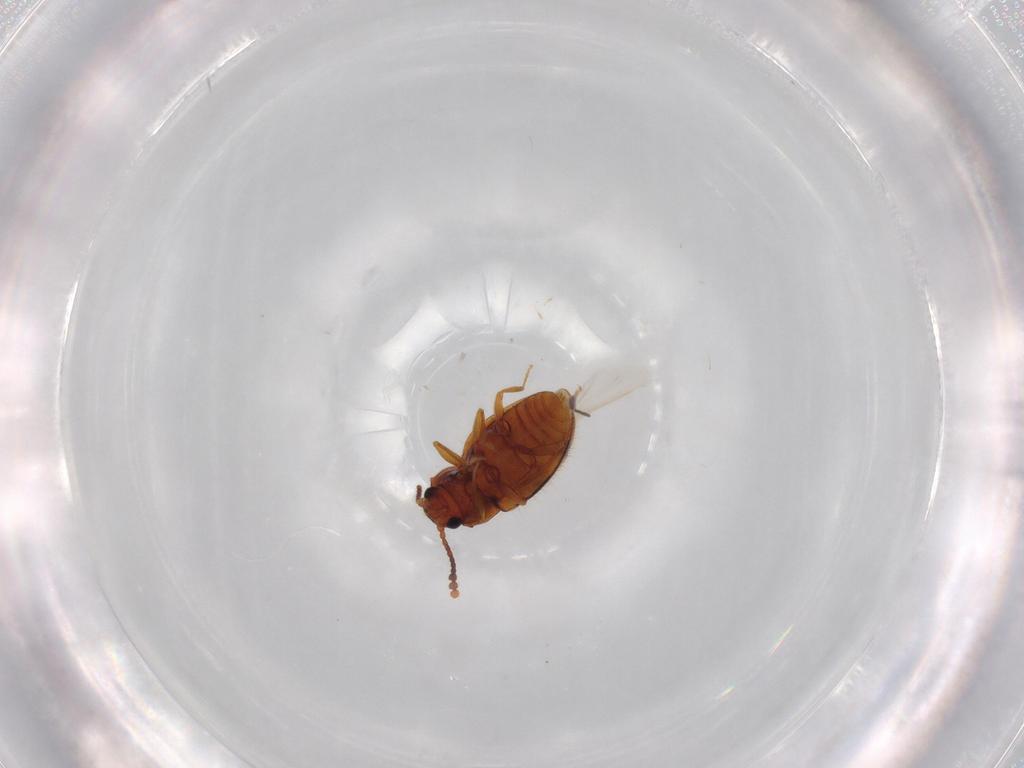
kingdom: Animalia
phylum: Arthropoda
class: Insecta
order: Coleoptera
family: Erotylidae
